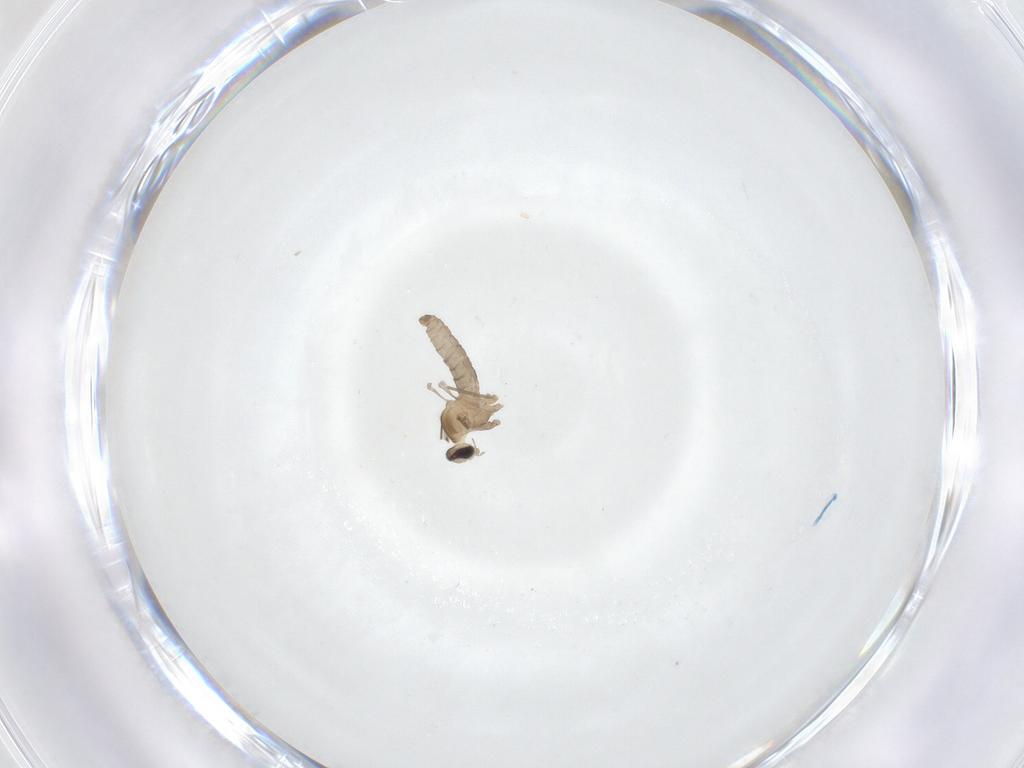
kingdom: Animalia
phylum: Arthropoda
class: Insecta
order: Diptera
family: Cecidomyiidae
